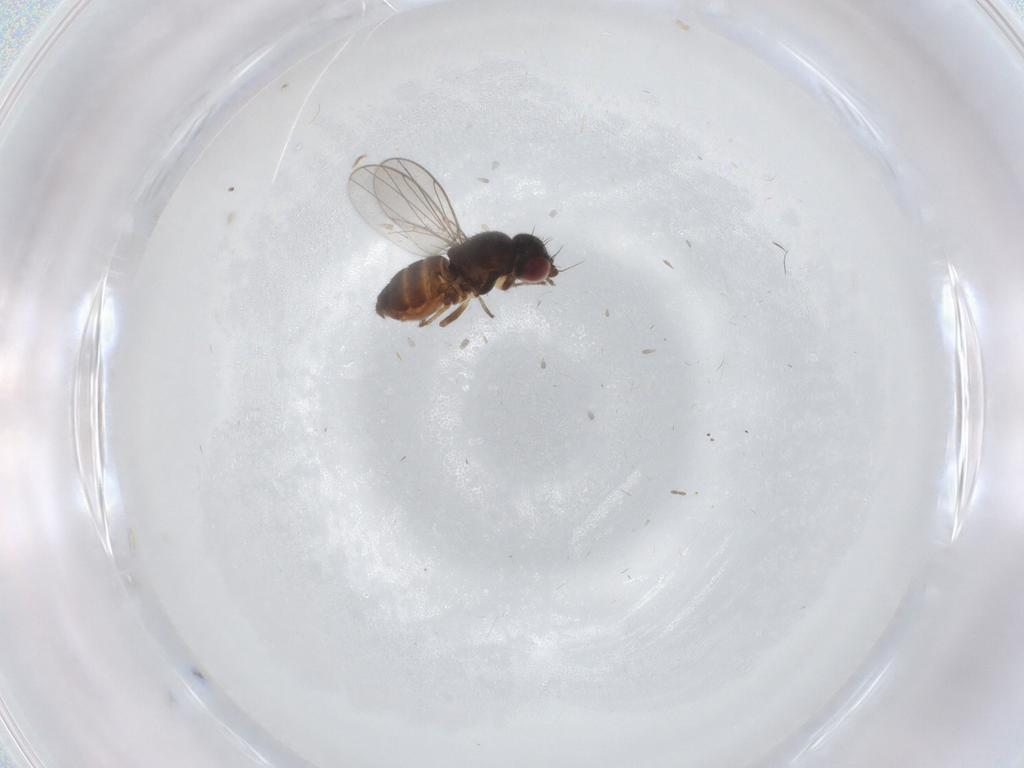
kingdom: Animalia
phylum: Arthropoda
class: Insecta
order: Diptera
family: Chloropidae
